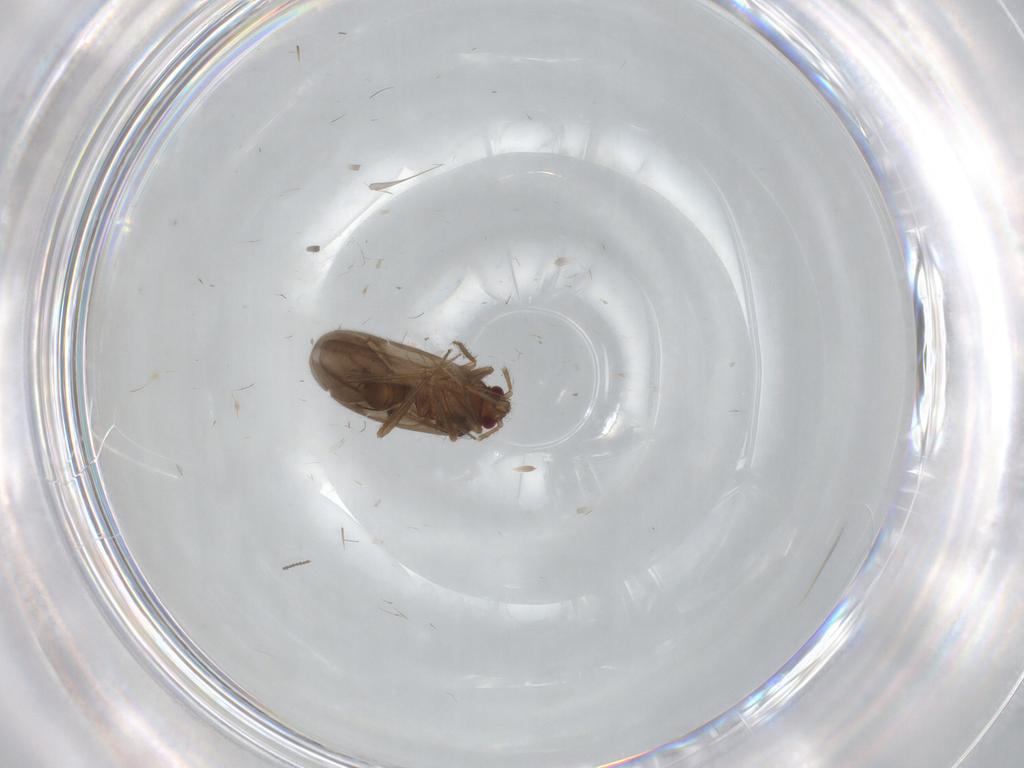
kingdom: Animalia
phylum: Arthropoda
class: Insecta
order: Hemiptera
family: Ceratocombidae
